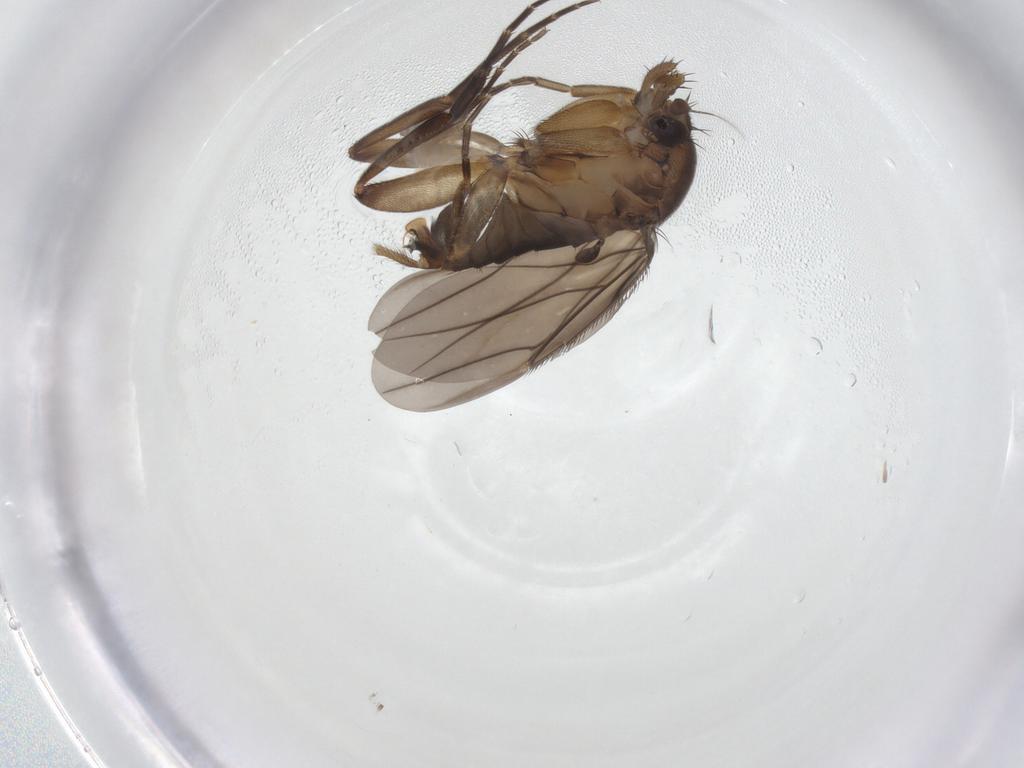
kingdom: Animalia
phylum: Arthropoda
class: Insecta
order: Diptera
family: Phoridae
